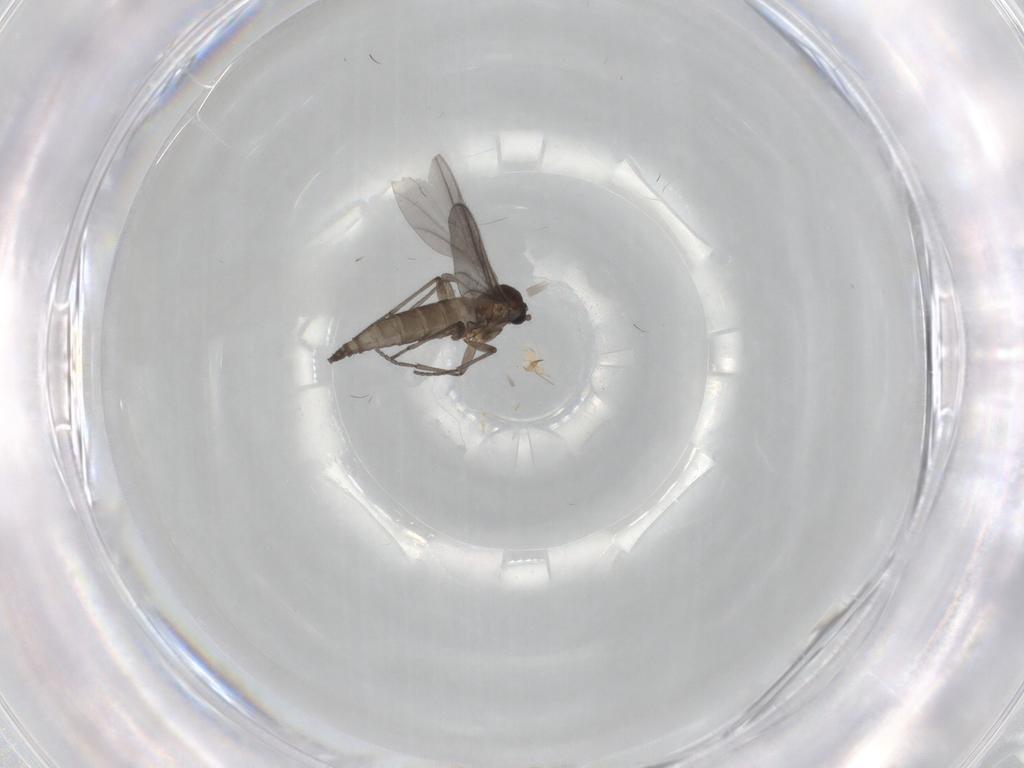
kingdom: Animalia
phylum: Arthropoda
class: Insecta
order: Diptera
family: Sciaridae
